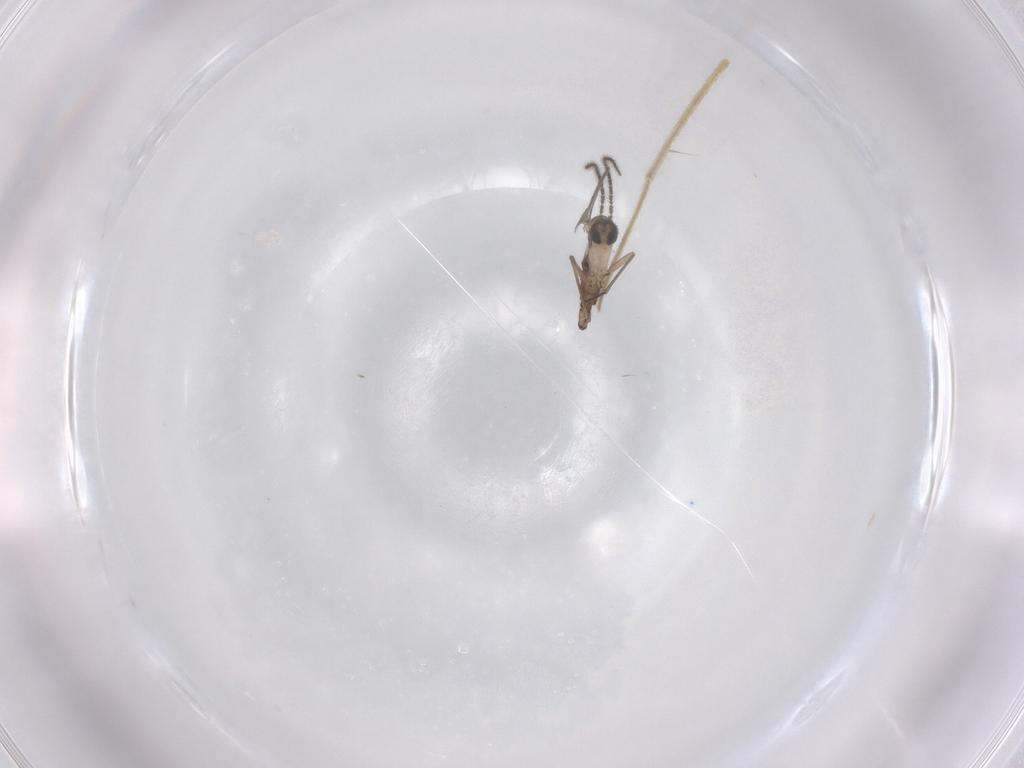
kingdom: Animalia
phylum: Arthropoda
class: Insecta
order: Diptera
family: Sciaridae
